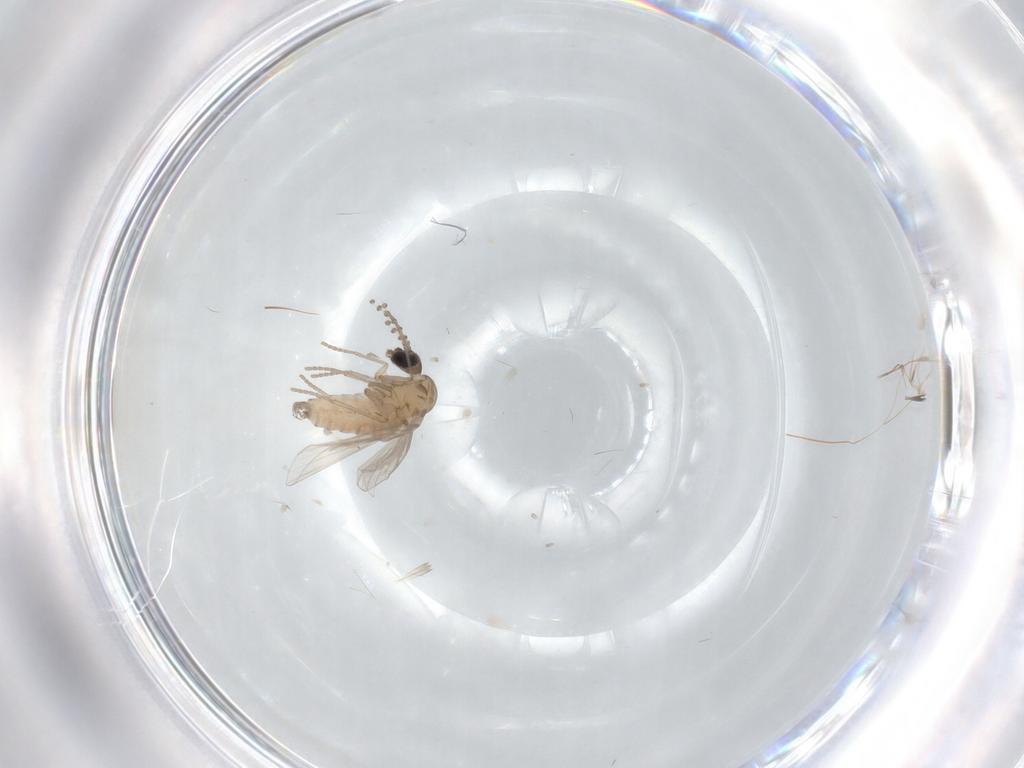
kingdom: Animalia
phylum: Arthropoda
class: Insecta
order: Diptera
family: Psychodidae
